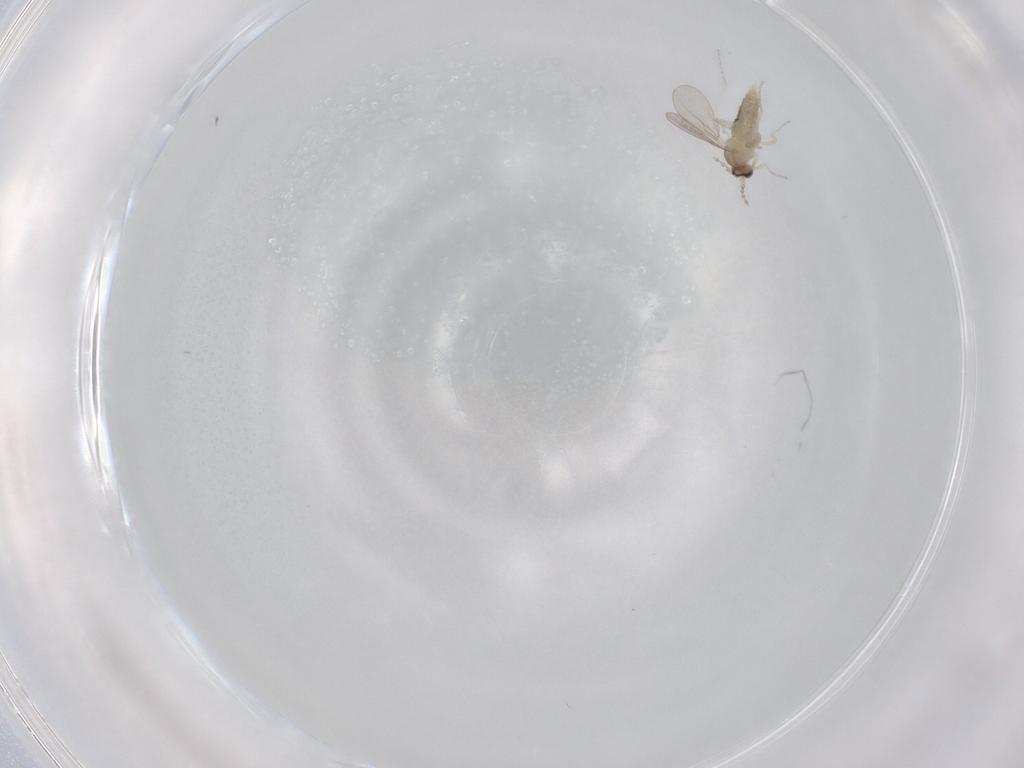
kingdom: Animalia
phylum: Arthropoda
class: Insecta
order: Diptera
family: Cecidomyiidae
